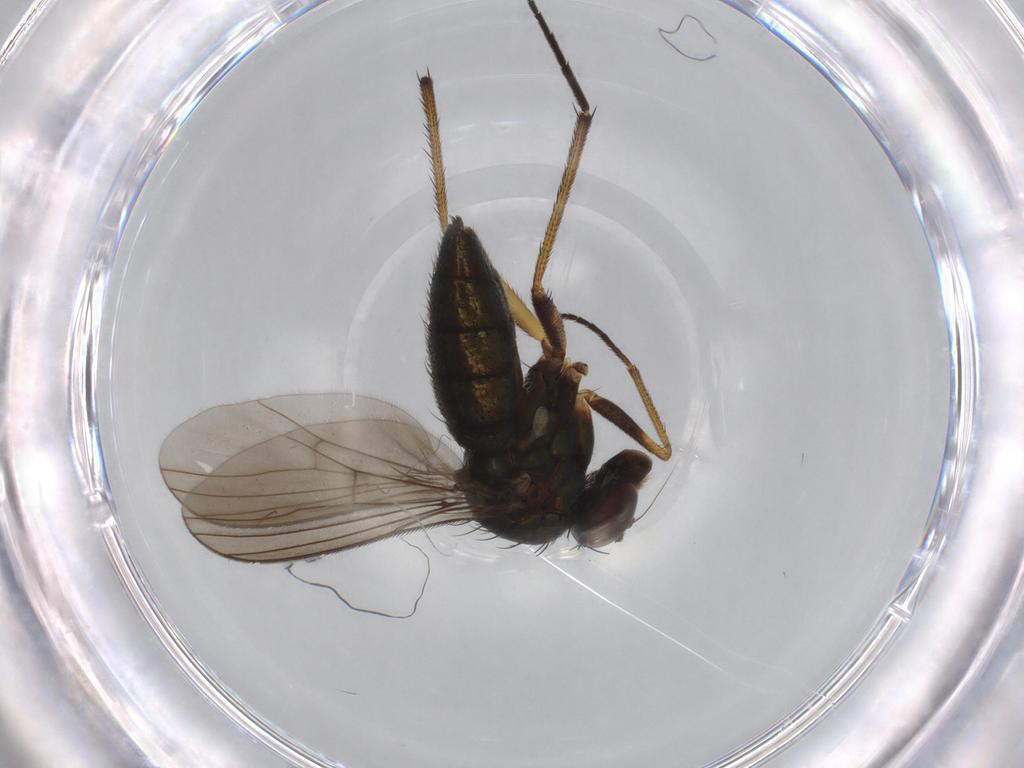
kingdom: Animalia
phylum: Arthropoda
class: Insecta
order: Diptera
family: Dolichopodidae
